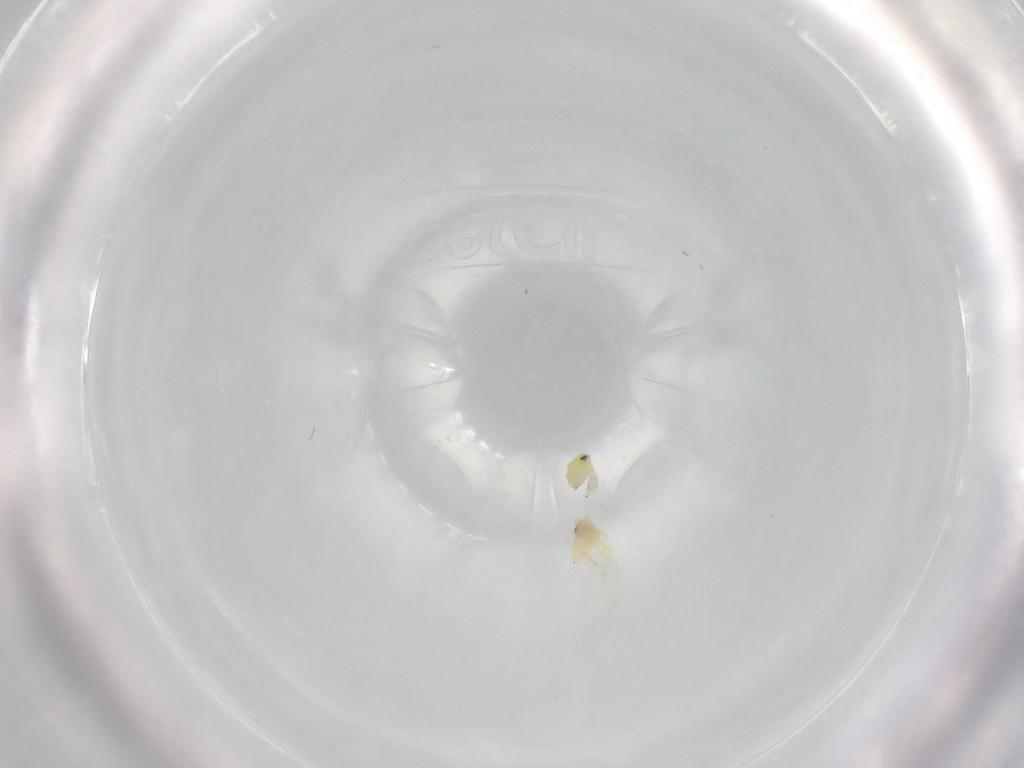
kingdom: Animalia
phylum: Arthropoda
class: Insecta
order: Hemiptera
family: Aleyrodidae
